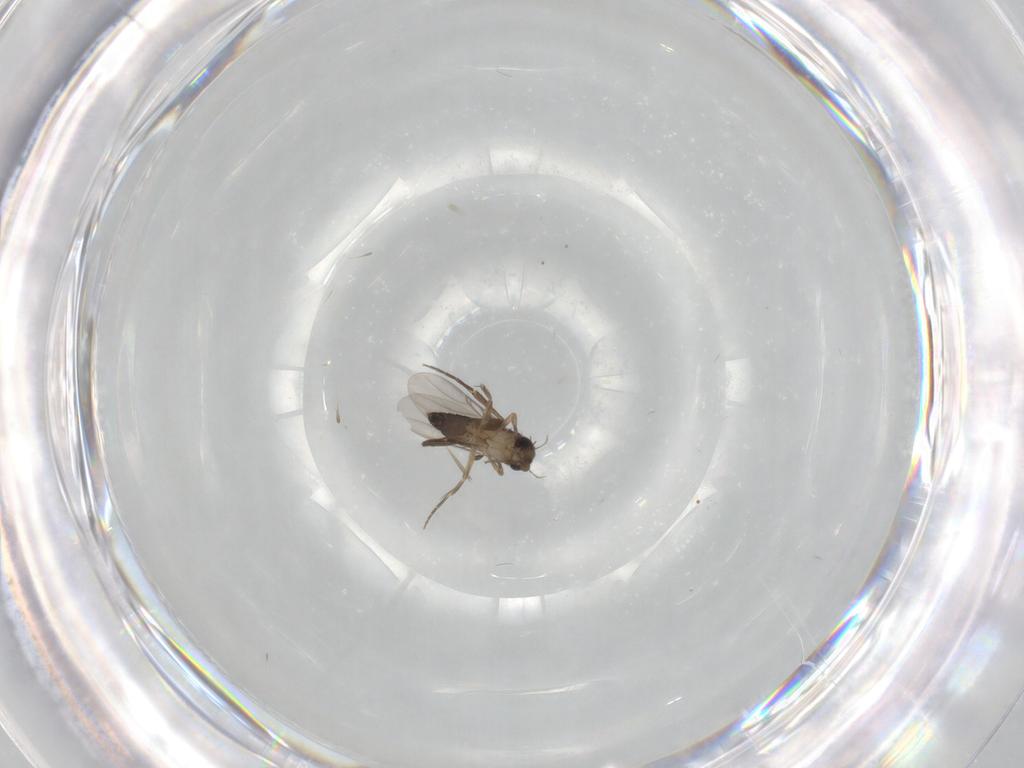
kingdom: Animalia
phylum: Arthropoda
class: Insecta
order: Diptera
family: Phoridae
